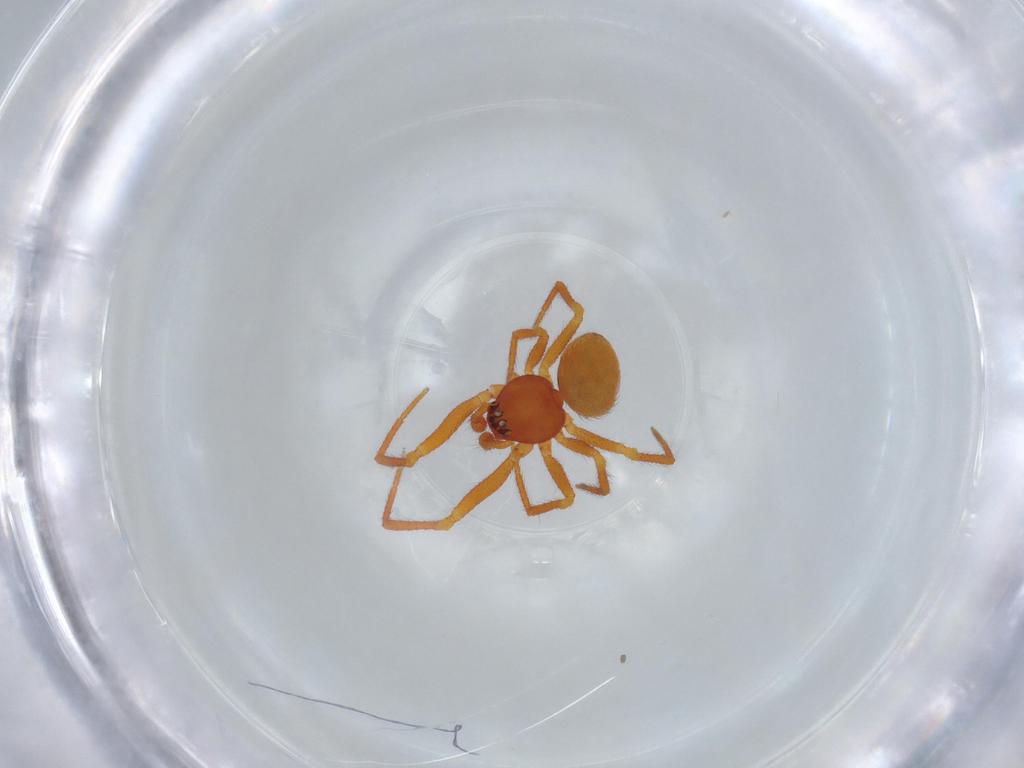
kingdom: Animalia
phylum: Arthropoda
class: Arachnida
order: Araneae
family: Theridiidae
